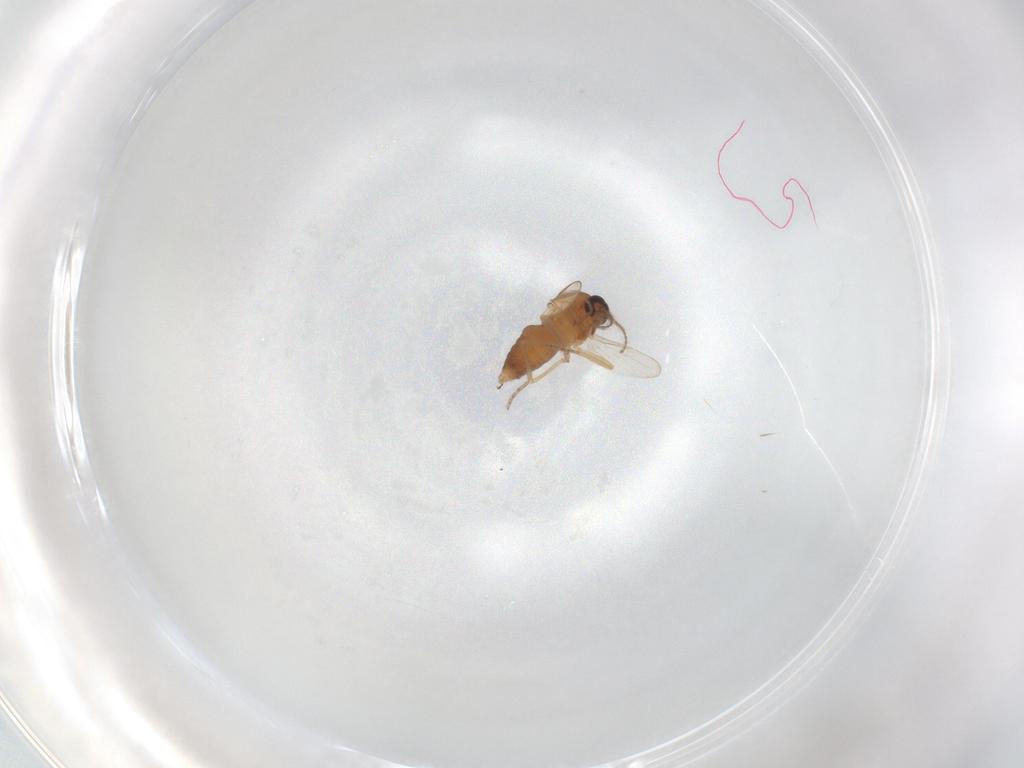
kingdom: Animalia
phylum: Arthropoda
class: Insecta
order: Diptera
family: Ceratopogonidae
